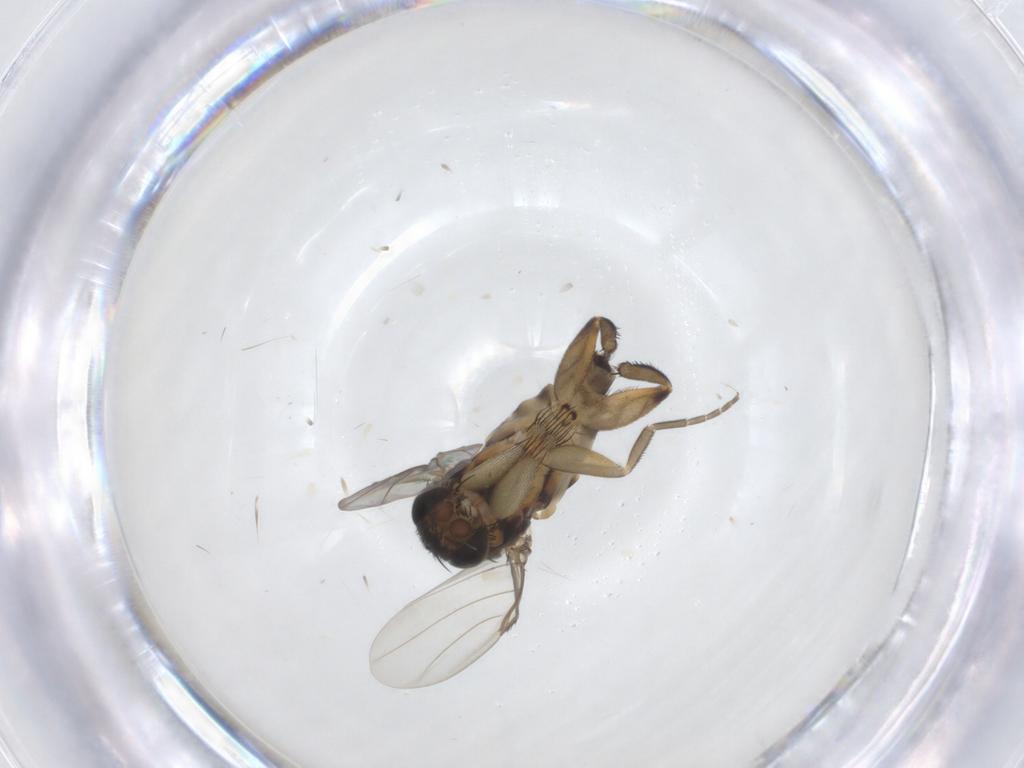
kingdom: Animalia
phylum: Arthropoda
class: Insecta
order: Diptera
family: Phoridae
